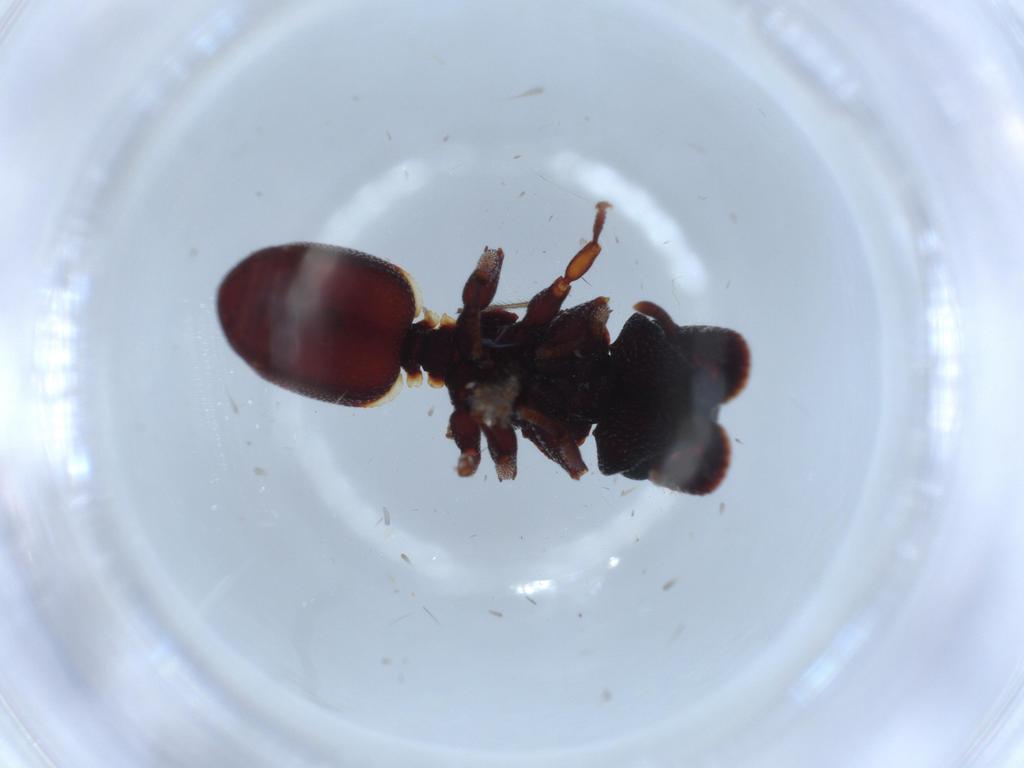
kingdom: Animalia
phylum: Arthropoda
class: Insecta
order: Hymenoptera
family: Formicidae
